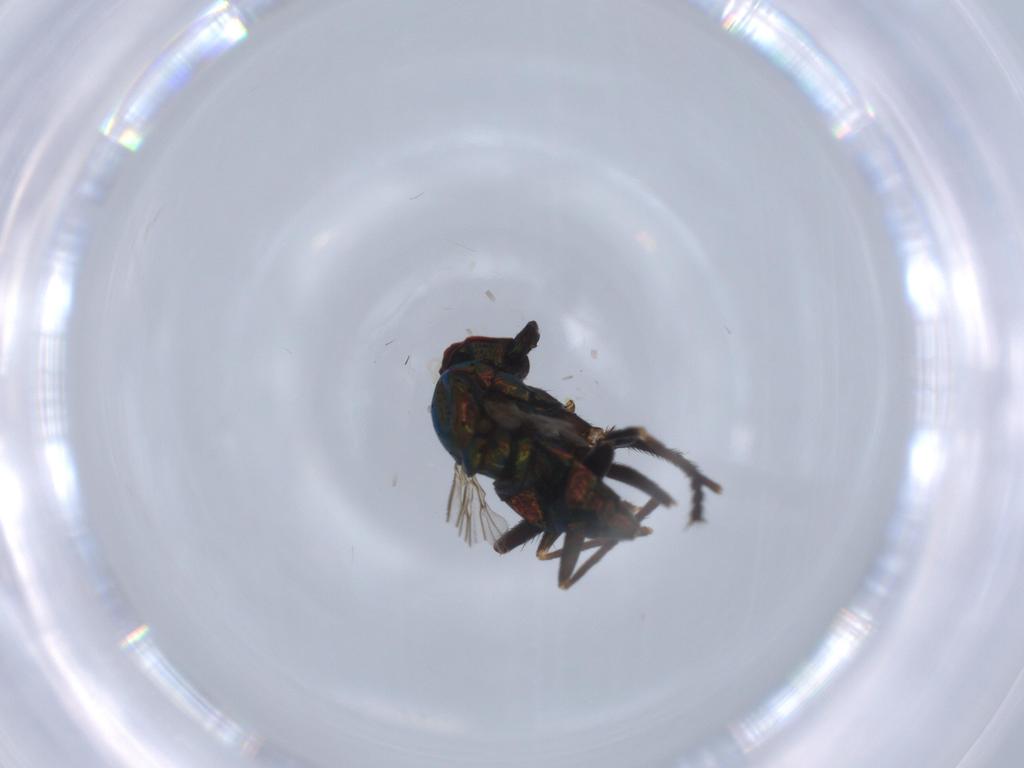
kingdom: Animalia
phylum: Arthropoda
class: Insecta
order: Diptera
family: Dolichopodidae
